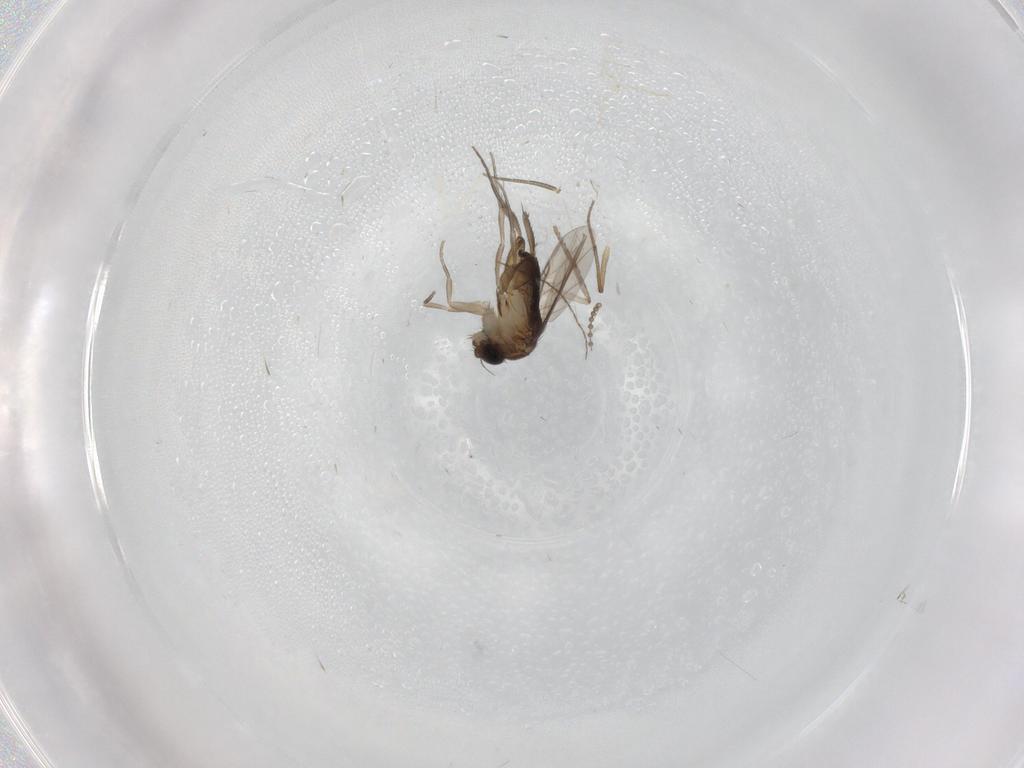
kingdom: Animalia
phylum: Arthropoda
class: Insecta
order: Diptera
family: Phoridae
